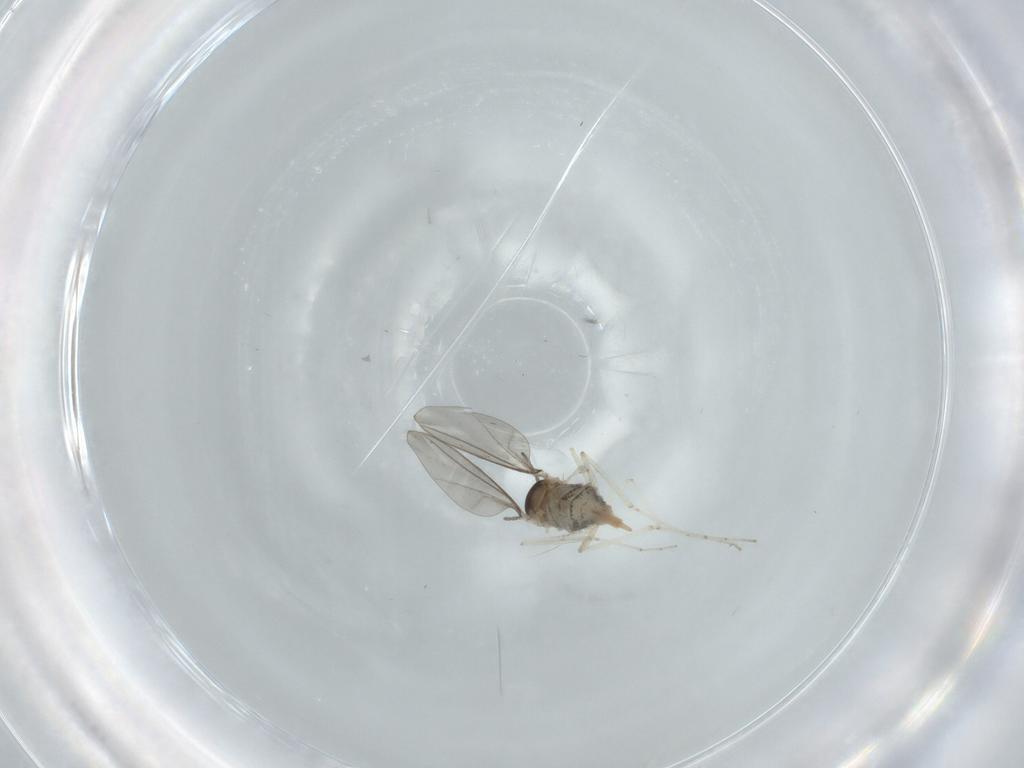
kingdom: Animalia
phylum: Arthropoda
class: Insecta
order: Diptera
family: Cecidomyiidae
